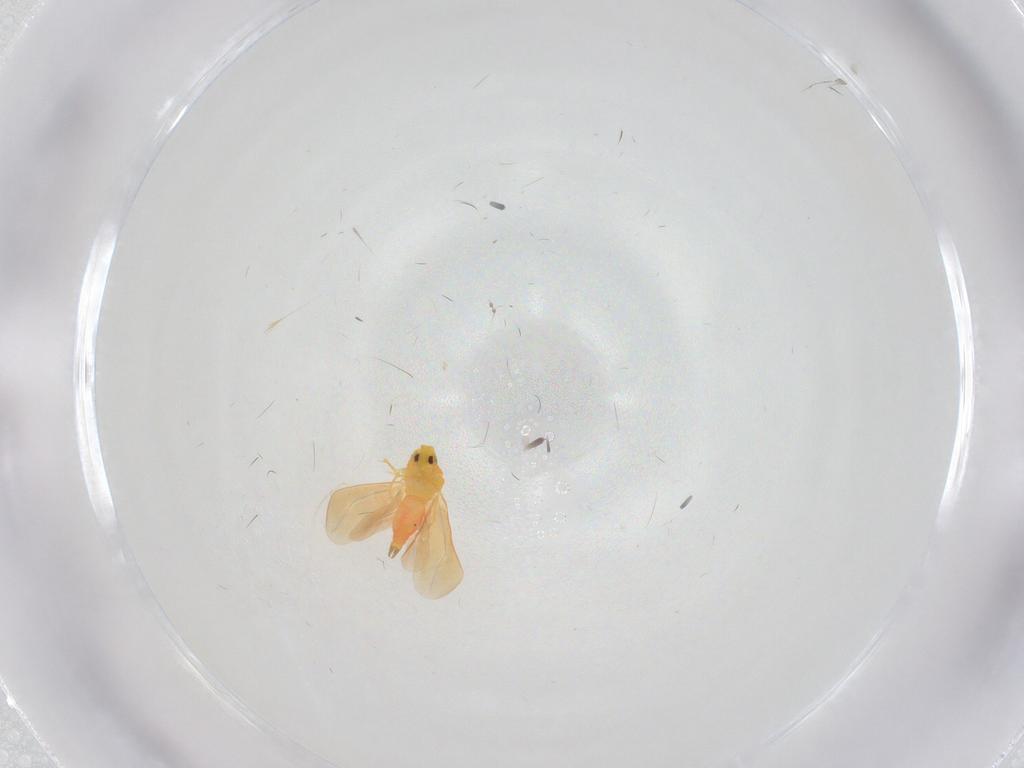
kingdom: Animalia
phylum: Arthropoda
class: Insecta
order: Hemiptera
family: Aleyrodidae
